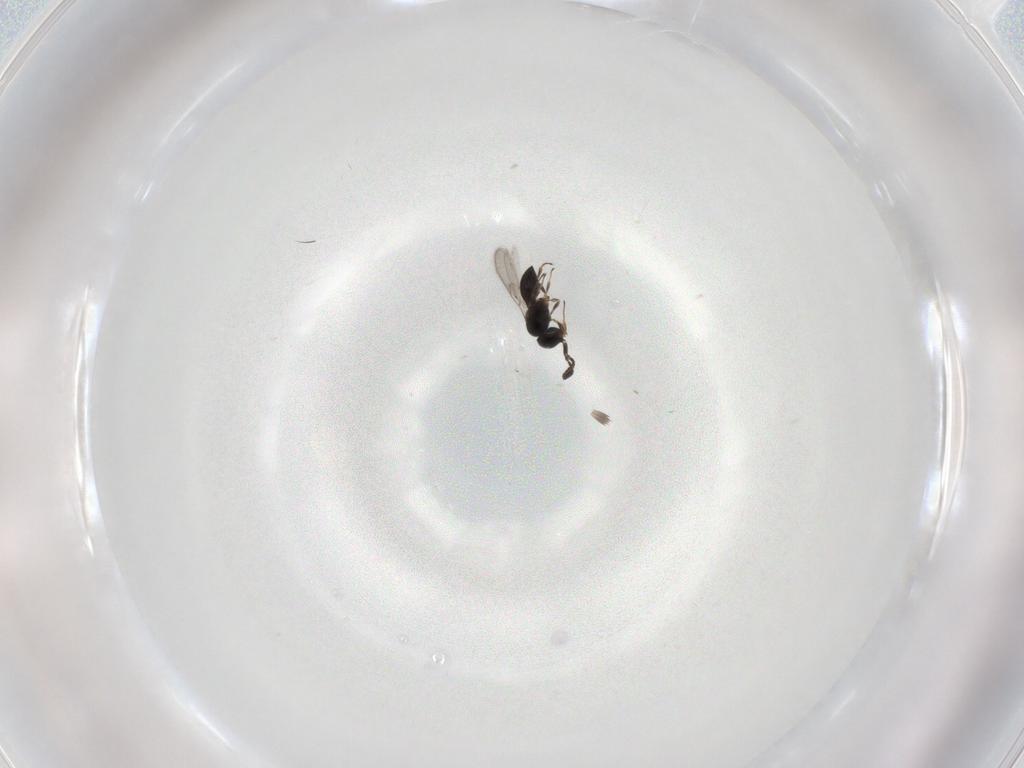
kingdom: Animalia
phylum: Arthropoda
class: Insecta
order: Hymenoptera
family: Scelionidae
